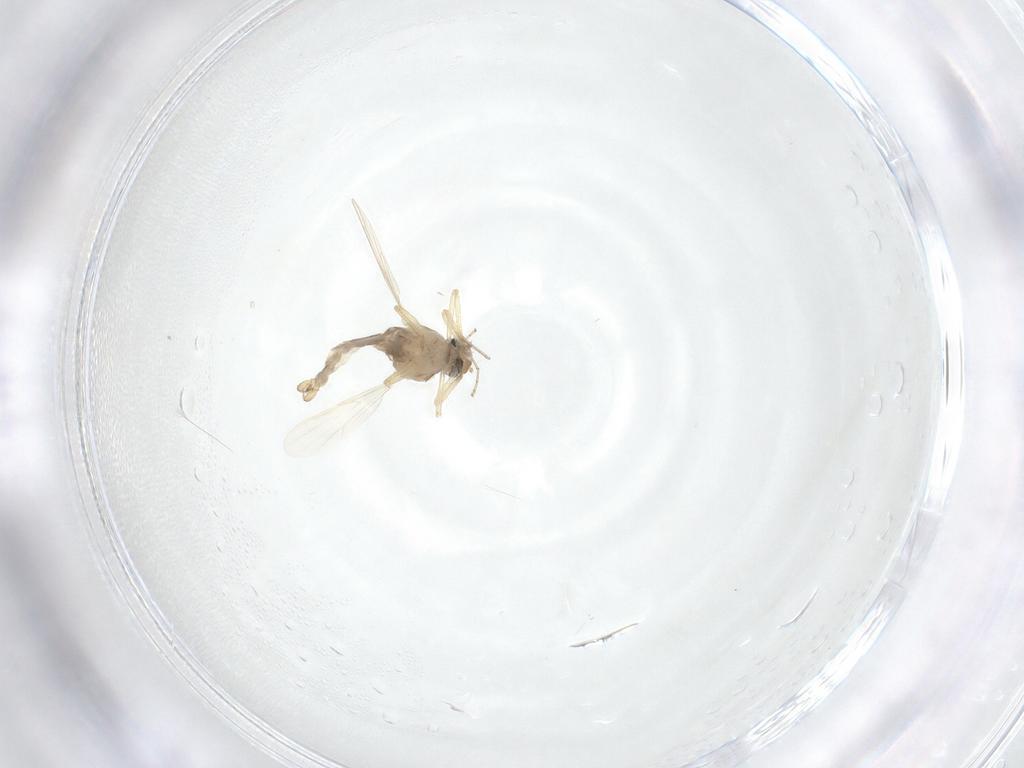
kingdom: Animalia
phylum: Arthropoda
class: Insecta
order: Diptera
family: Ceratopogonidae
